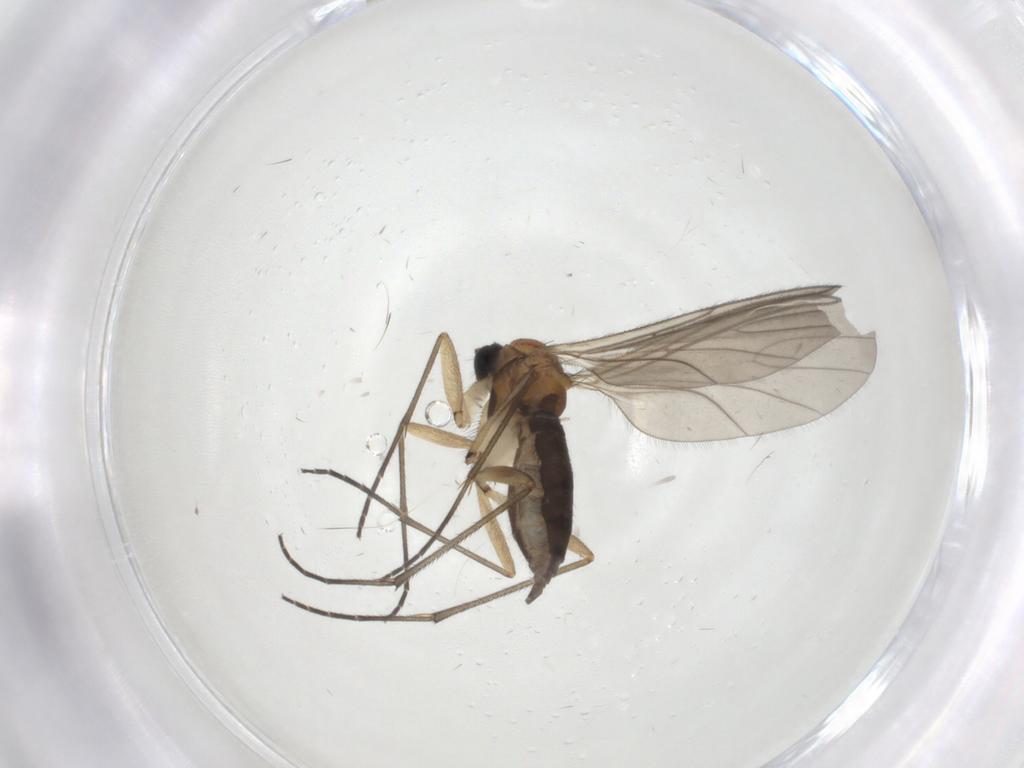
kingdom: Animalia
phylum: Arthropoda
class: Insecta
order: Diptera
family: Sciaridae
